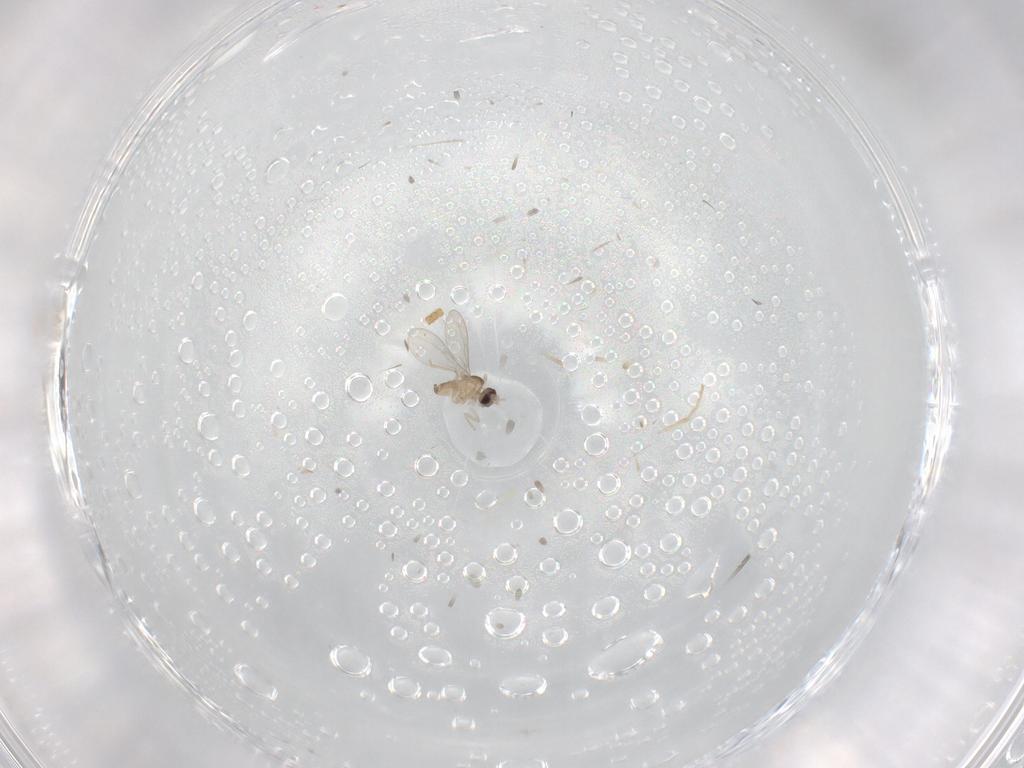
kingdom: Animalia
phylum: Arthropoda
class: Insecta
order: Diptera
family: Cecidomyiidae
